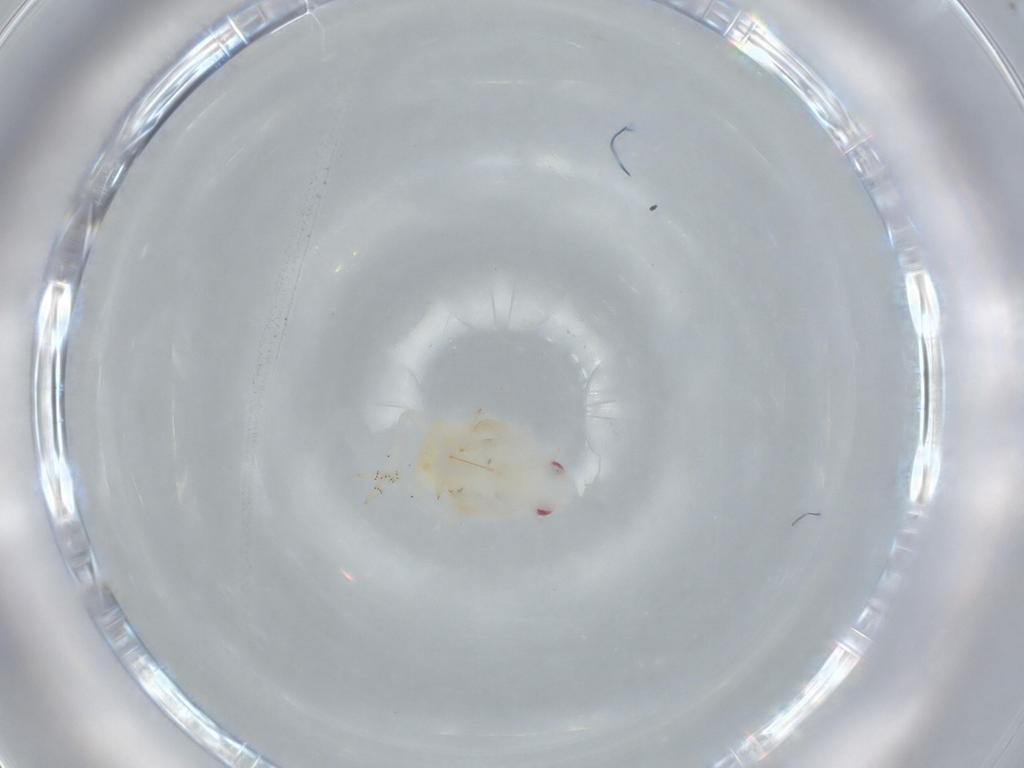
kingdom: Animalia
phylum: Arthropoda
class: Insecta
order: Hemiptera
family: Flatidae
